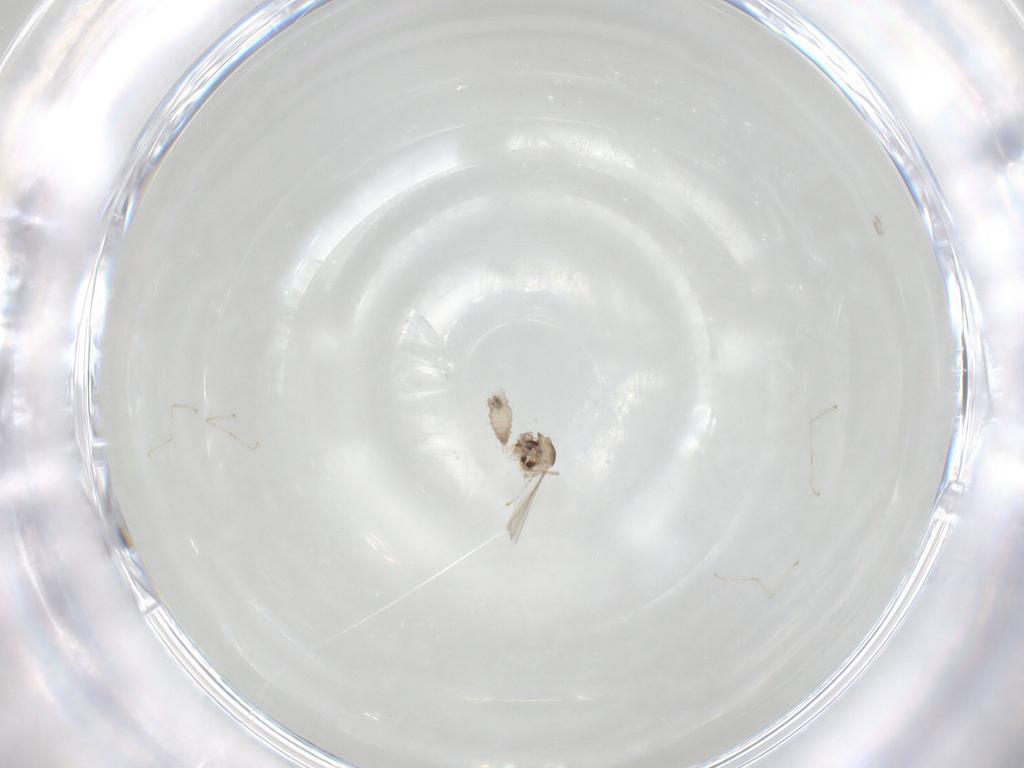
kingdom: Animalia
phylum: Arthropoda
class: Insecta
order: Diptera
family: Cecidomyiidae
